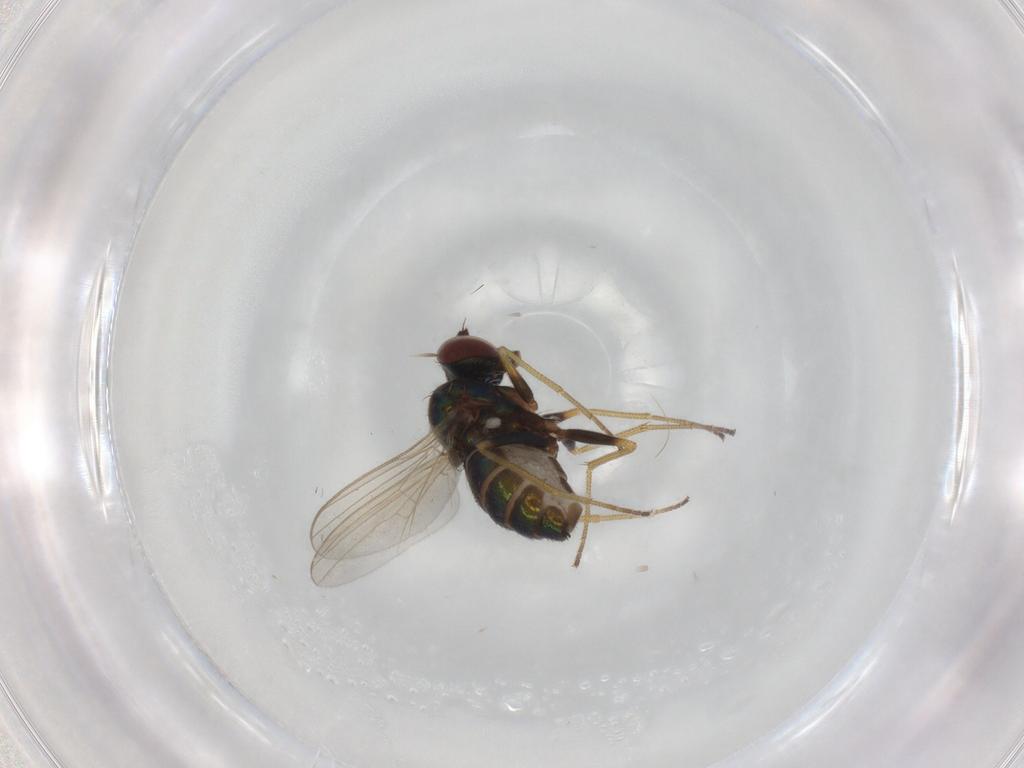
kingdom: Animalia
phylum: Arthropoda
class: Insecta
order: Diptera
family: Dolichopodidae
